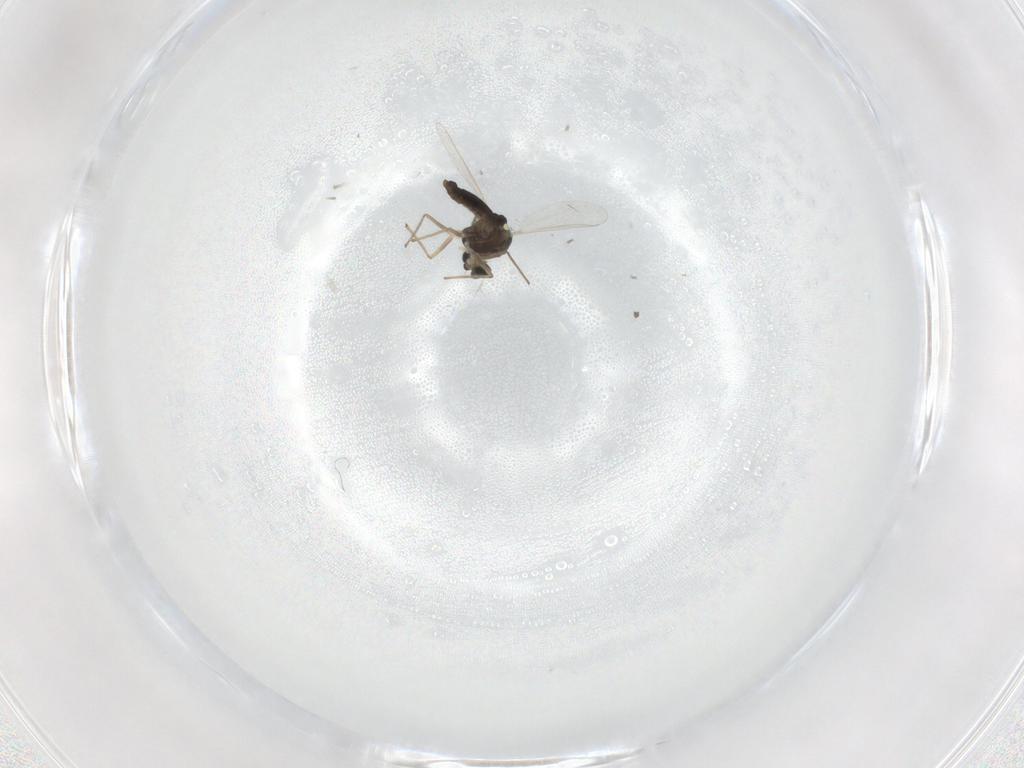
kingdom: Animalia
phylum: Arthropoda
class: Insecta
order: Diptera
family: Chironomidae
